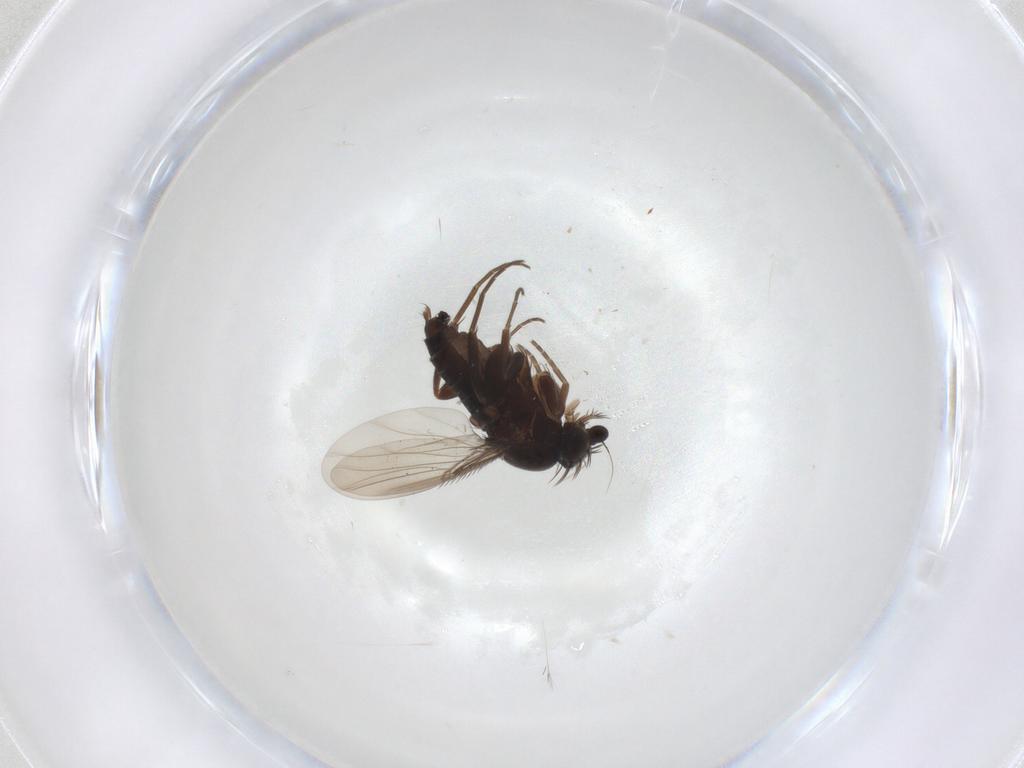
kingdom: Animalia
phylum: Arthropoda
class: Insecta
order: Diptera
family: Phoridae
